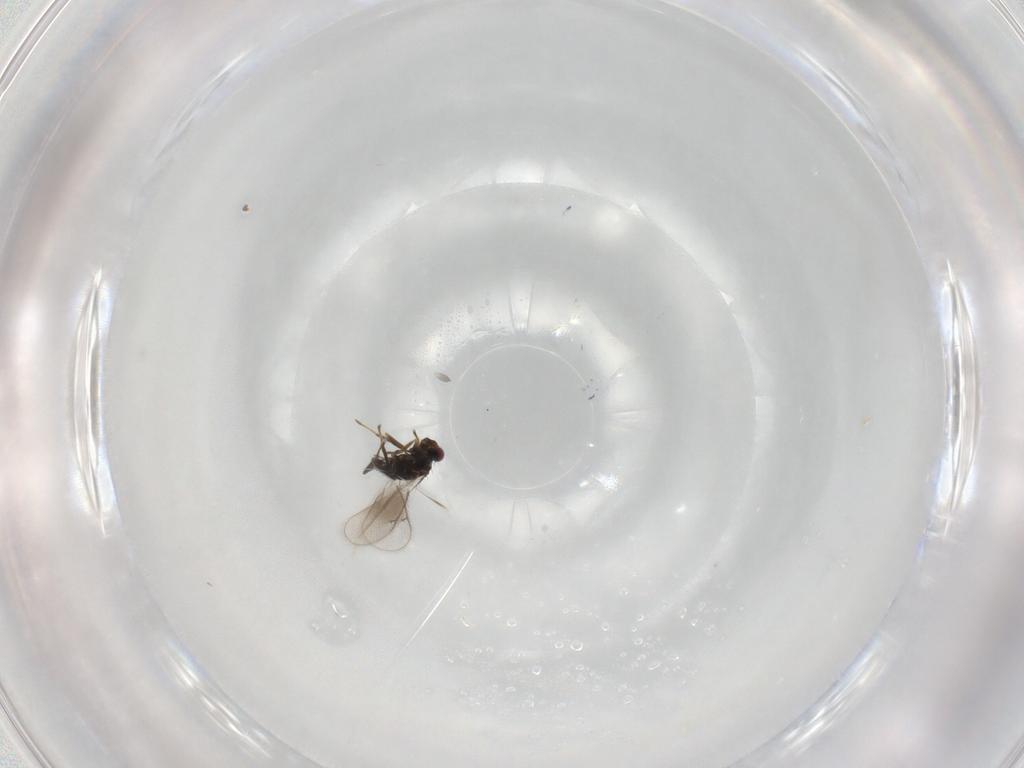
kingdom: Animalia
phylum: Arthropoda
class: Insecta
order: Hymenoptera
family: Eulophidae
